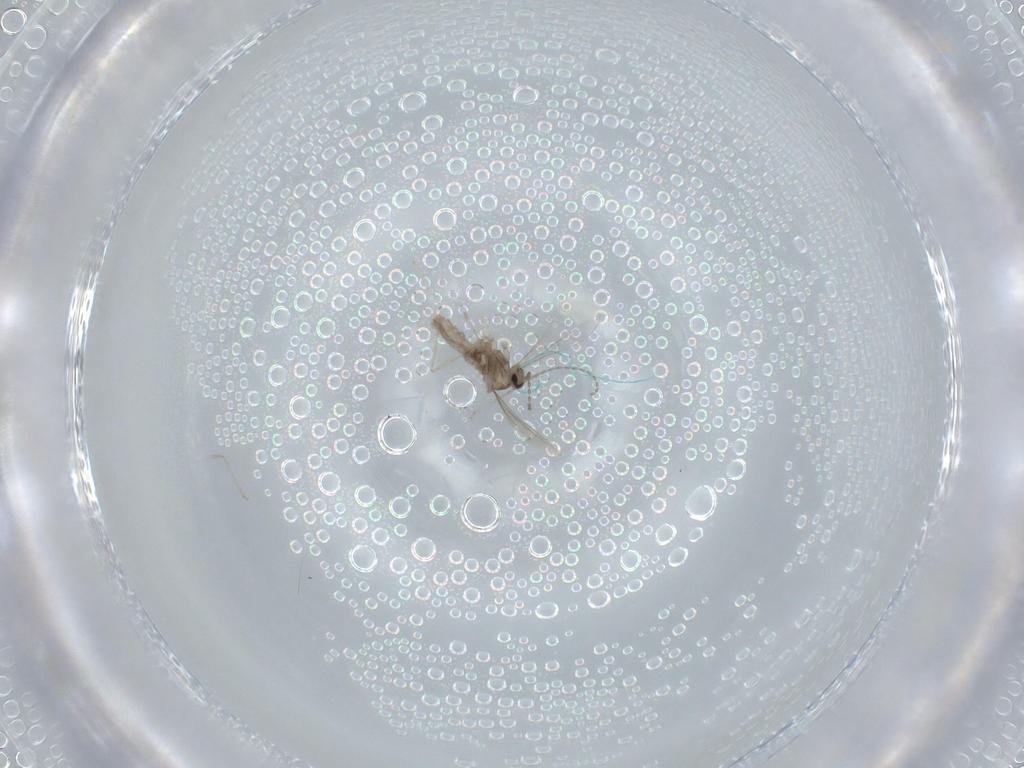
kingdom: Animalia
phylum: Arthropoda
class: Insecta
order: Diptera
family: Cecidomyiidae
